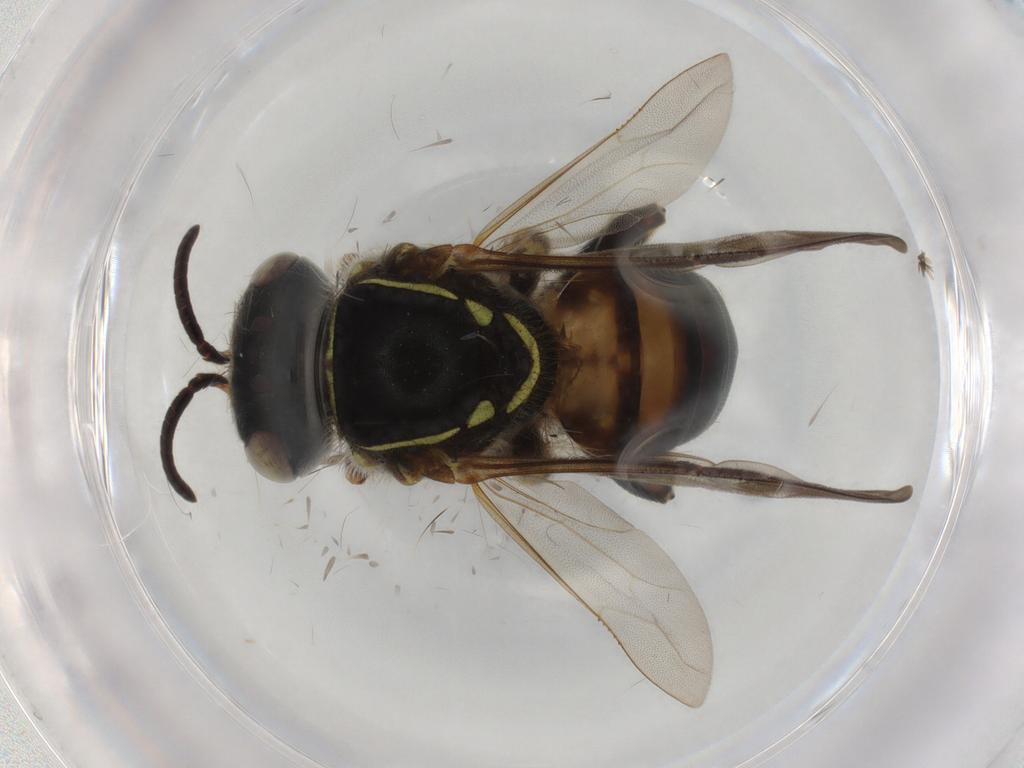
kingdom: Animalia
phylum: Arthropoda
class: Insecta
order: Hymenoptera
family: Apidae
